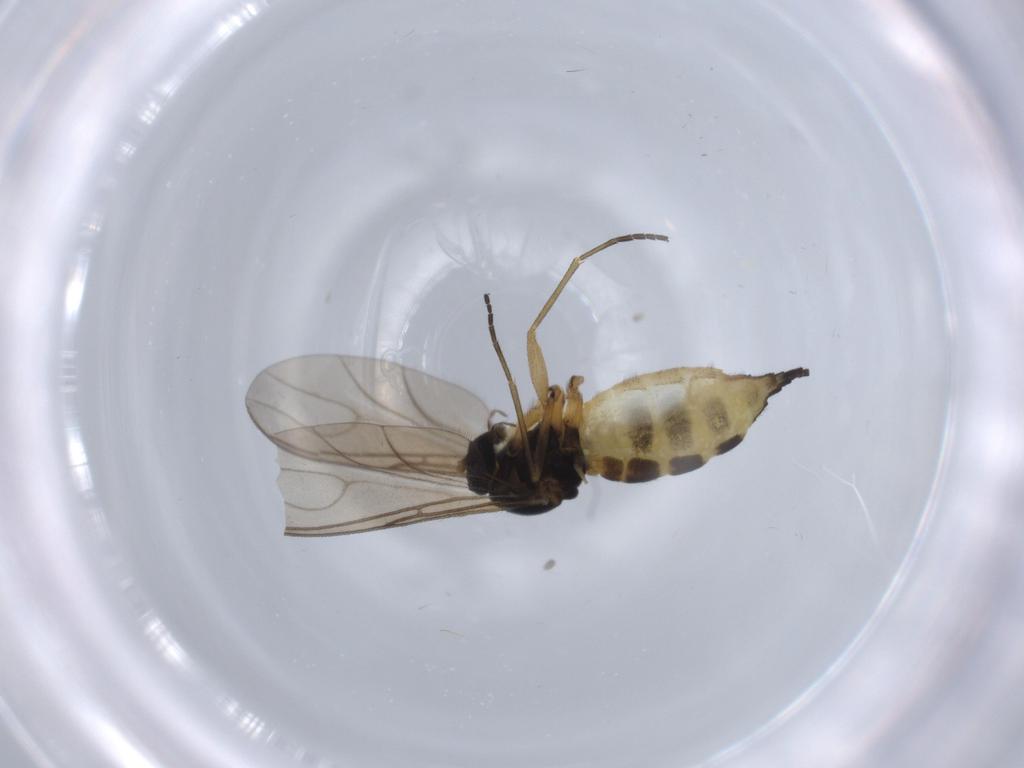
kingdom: Animalia
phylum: Arthropoda
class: Insecta
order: Diptera
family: Sciaridae
